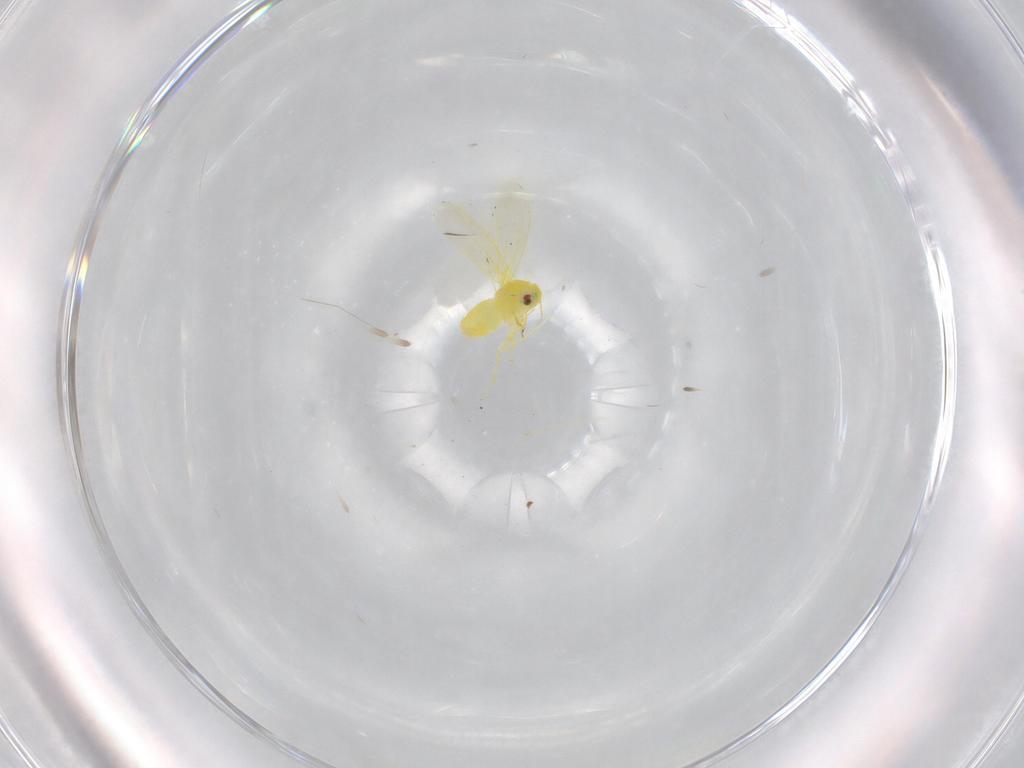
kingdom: Animalia
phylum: Arthropoda
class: Insecta
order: Hemiptera
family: Aleyrodidae
